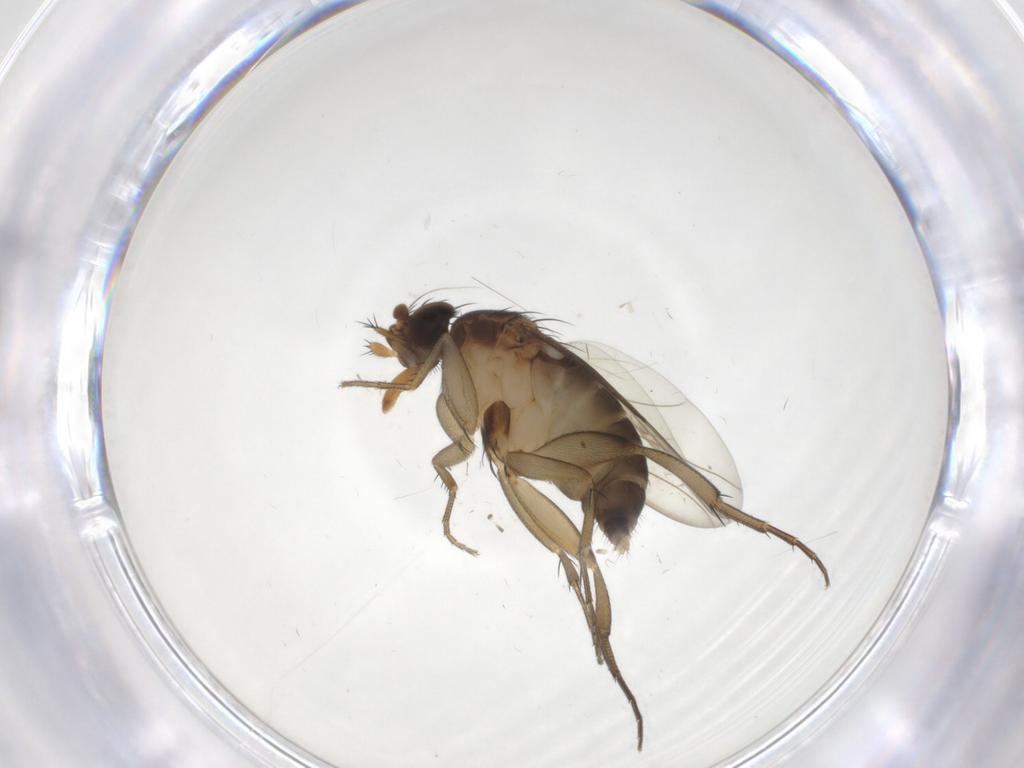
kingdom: Animalia
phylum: Arthropoda
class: Insecta
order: Diptera
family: Phoridae
